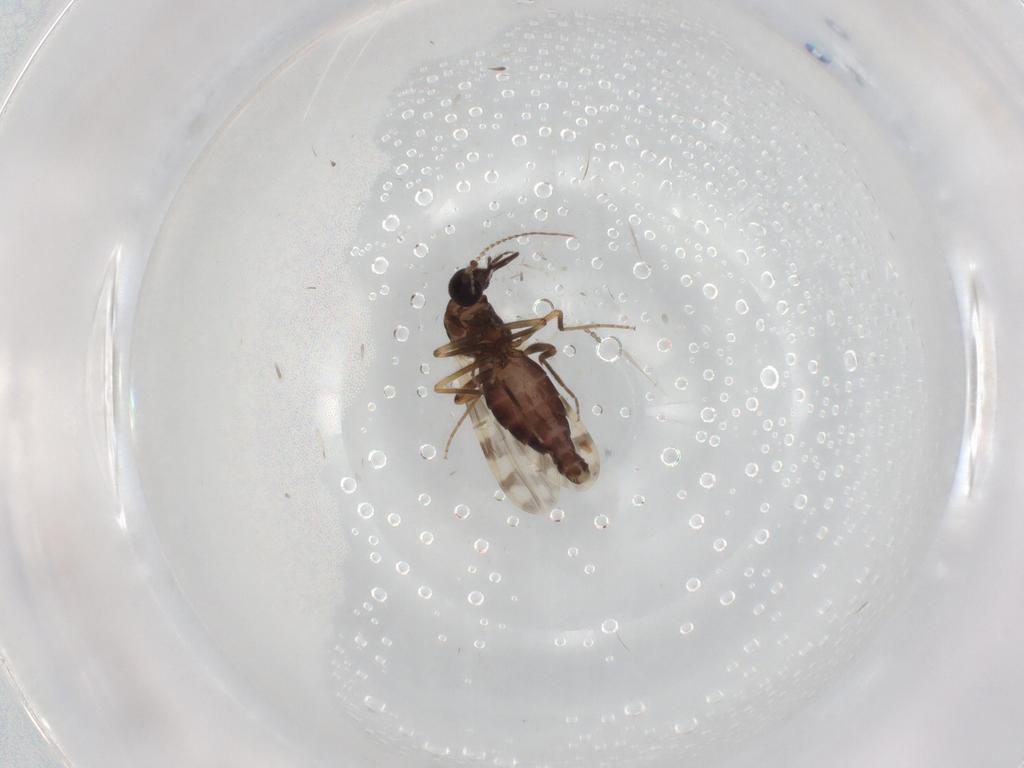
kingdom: Animalia
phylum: Arthropoda
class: Insecta
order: Diptera
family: Ceratopogonidae
